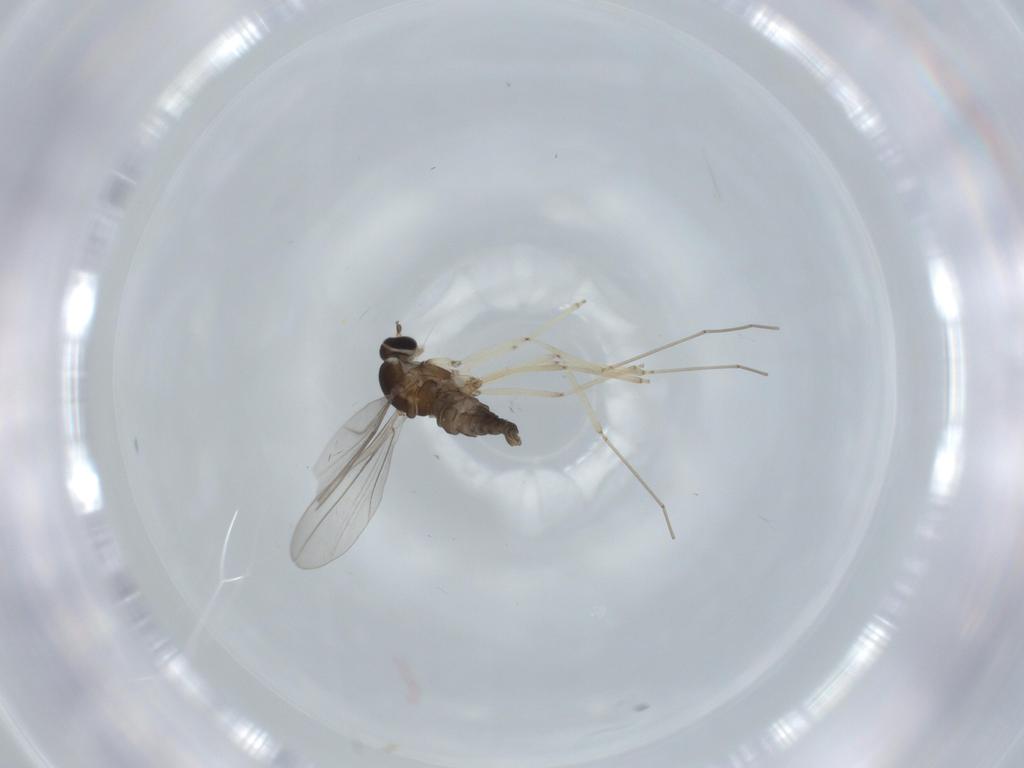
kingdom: Animalia
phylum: Arthropoda
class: Insecta
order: Diptera
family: Cecidomyiidae
